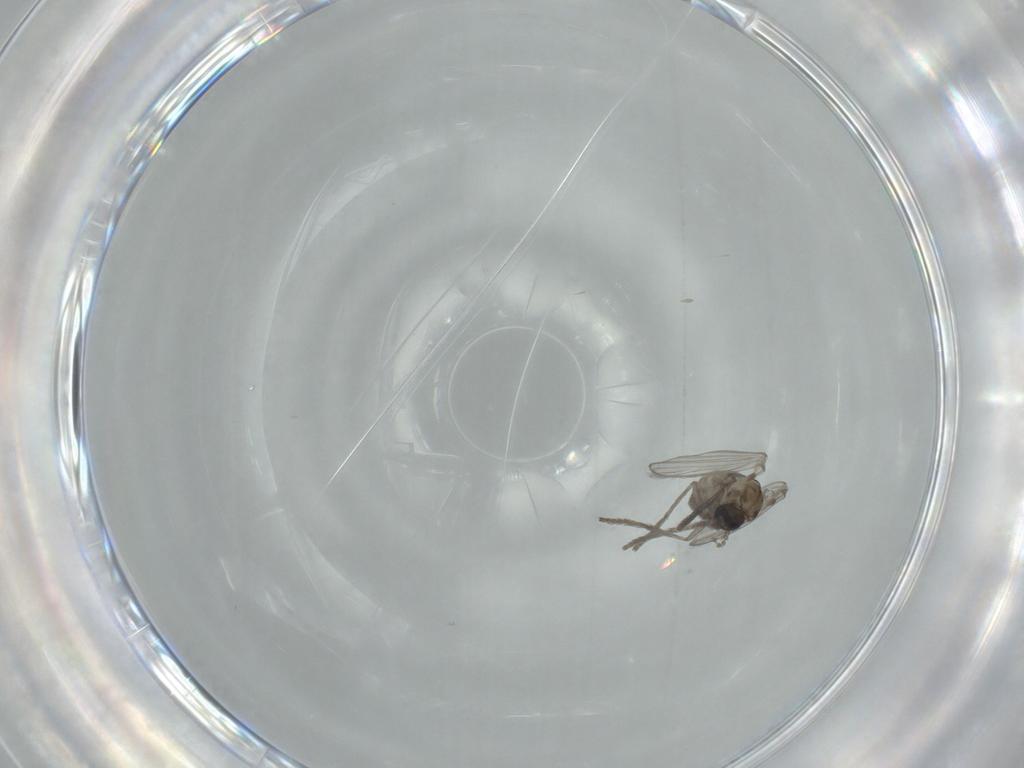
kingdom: Animalia
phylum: Arthropoda
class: Insecta
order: Diptera
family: Psychodidae
